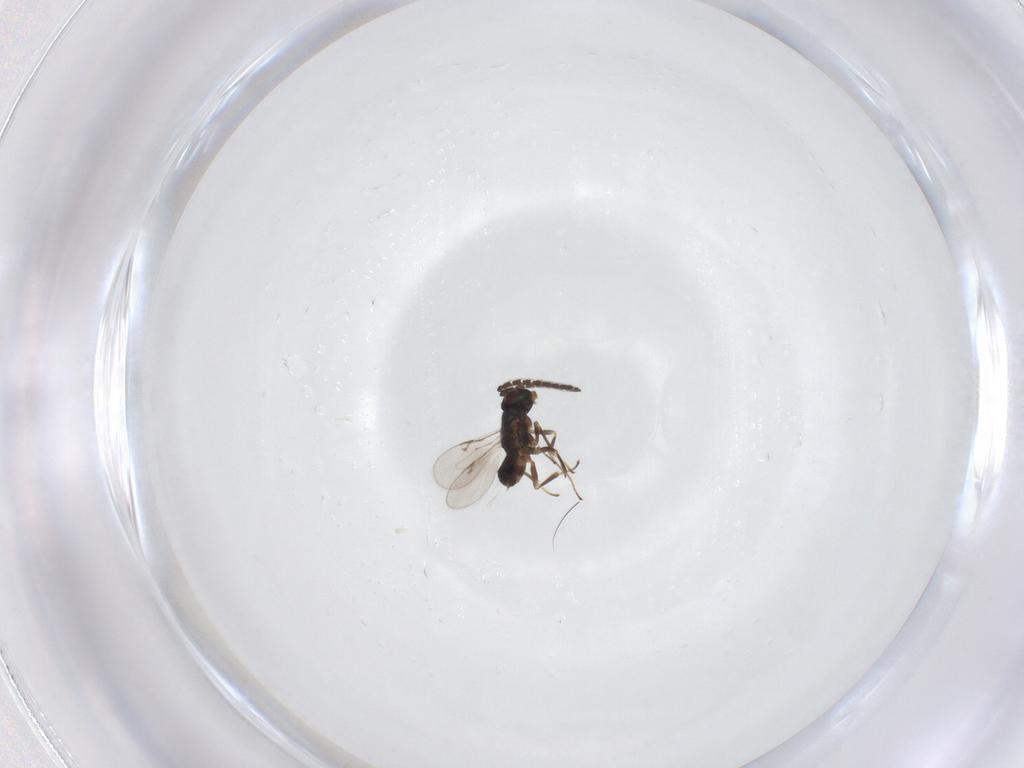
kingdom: Animalia
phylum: Arthropoda
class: Insecta
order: Hymenoptera
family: Encyrtidae
